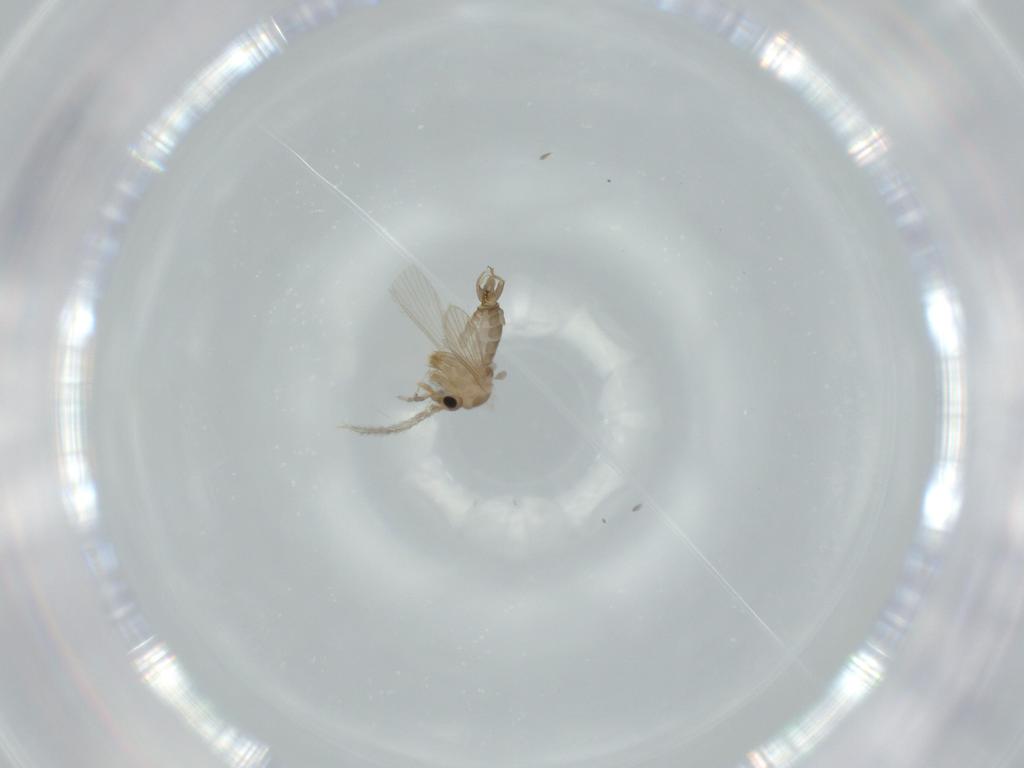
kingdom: Animalia
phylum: Arthropoda
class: Insecta
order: Diptera
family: Psychodidae
